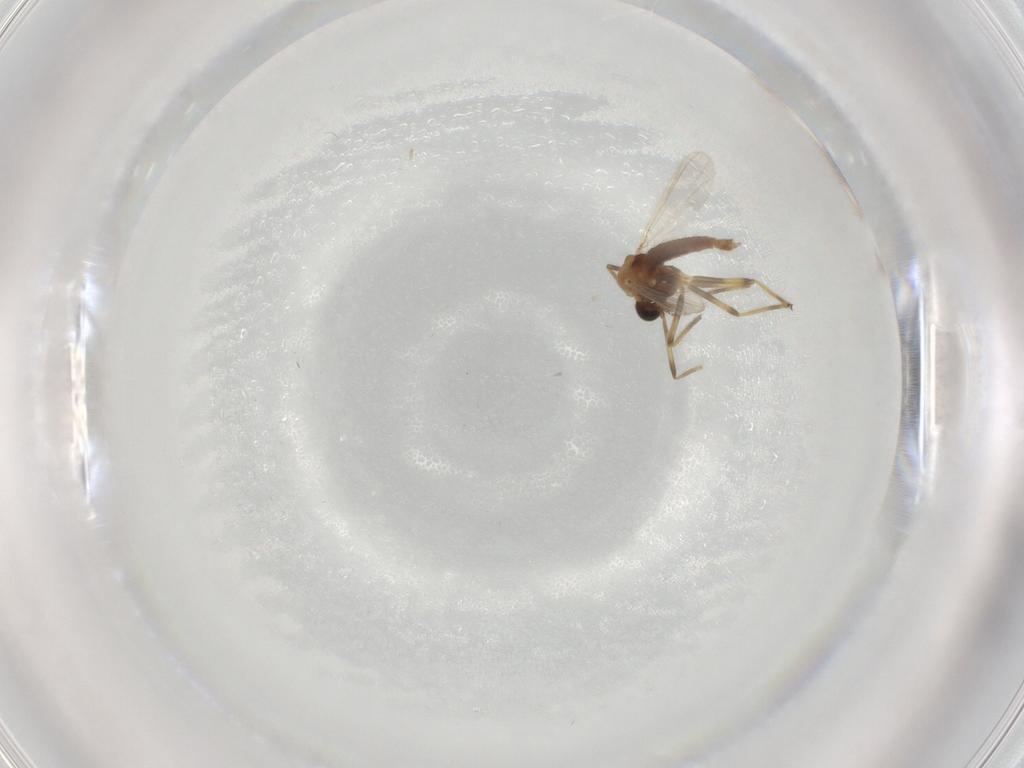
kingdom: Animalia
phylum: Arthropoda
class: Insecta
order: Diptera
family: Chironomidae
